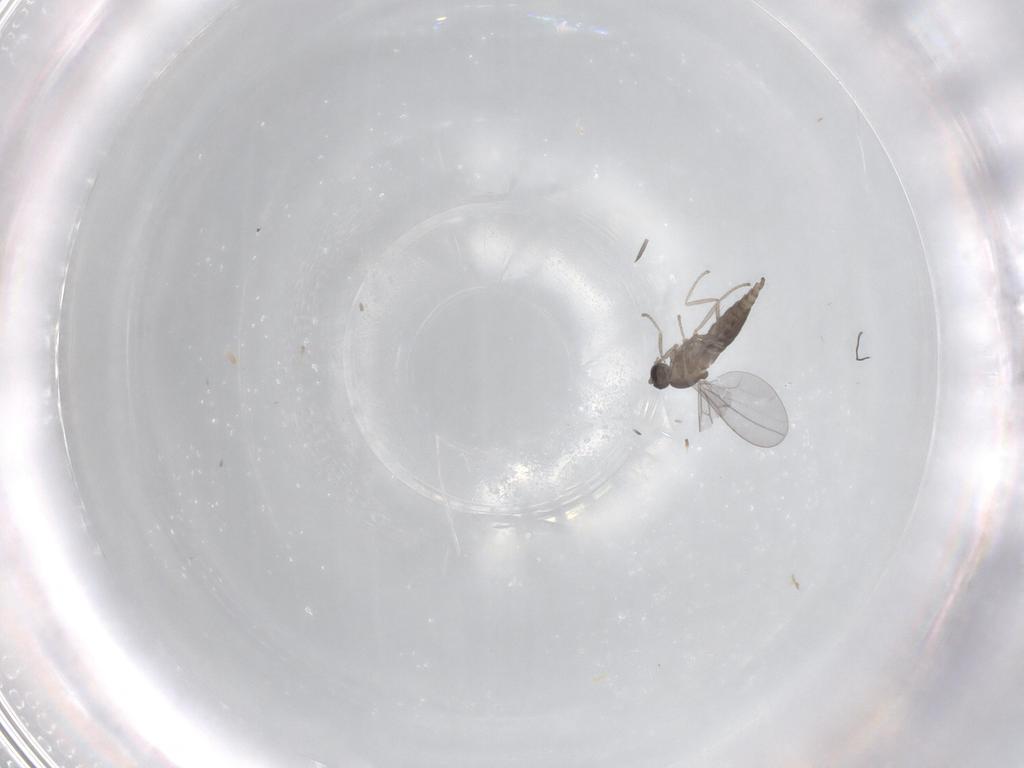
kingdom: Animalia
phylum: Arthropoda
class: Insecta
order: Diptera
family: Cecidomyiidae
